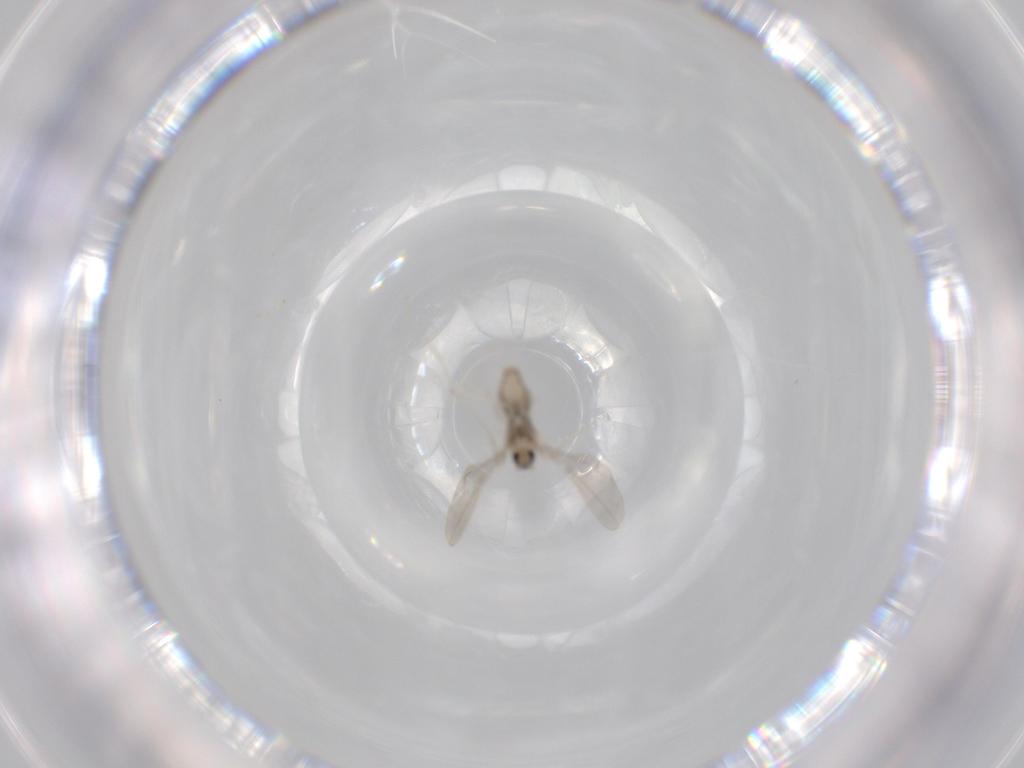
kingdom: Animalia
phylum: Arthropoda
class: Insecta
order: Diptera
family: Cecidomyiidae
